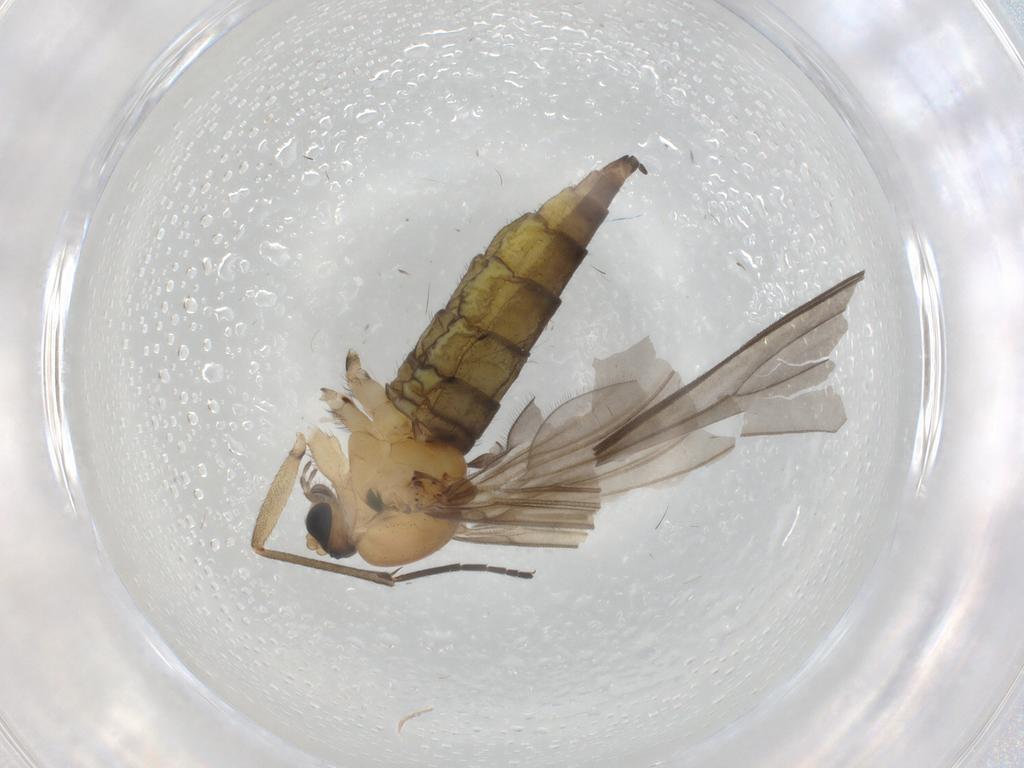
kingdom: Animalia
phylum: Arthropoda
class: Insecta
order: Diptera
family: Sciaridae
